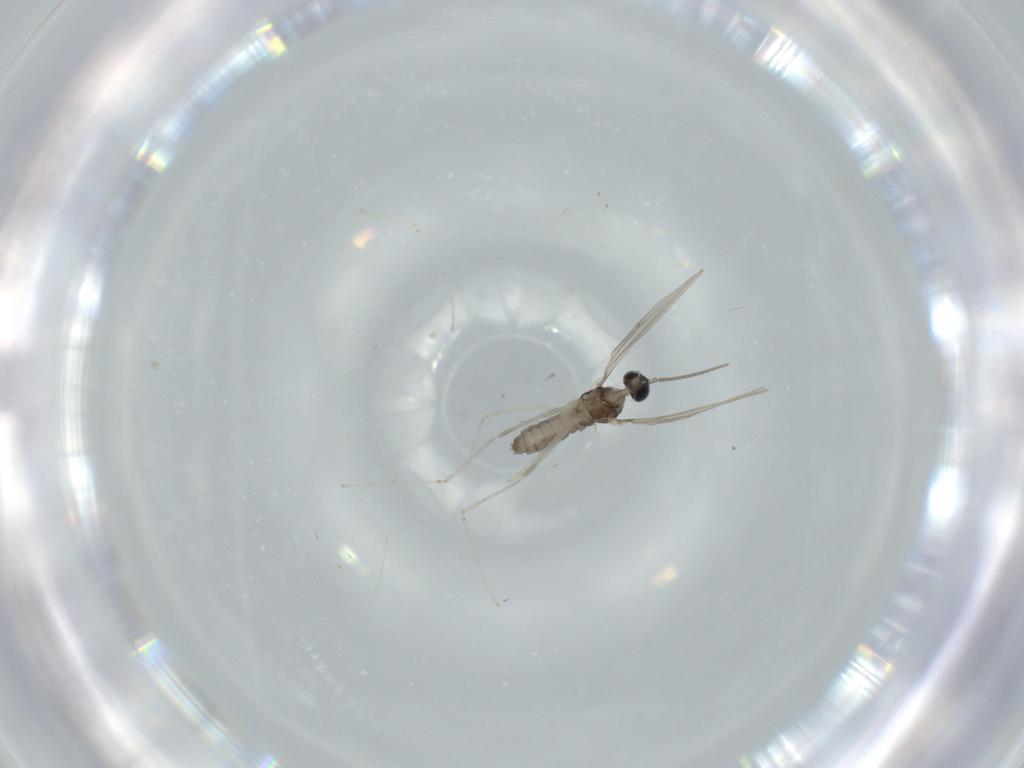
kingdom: Animalia
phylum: Arthropoda
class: Insecta
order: Diptera
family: Cecidomyiidae
